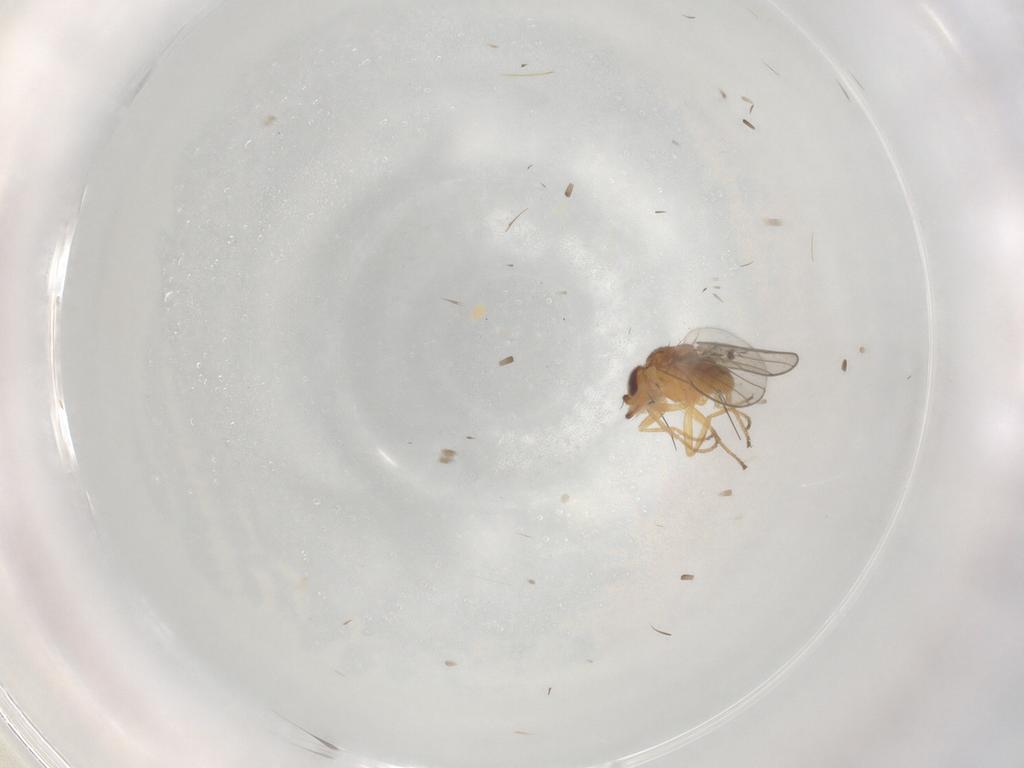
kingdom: Animalia
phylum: Arthropoda
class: Insecta
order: Diptera
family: Chloropidae
